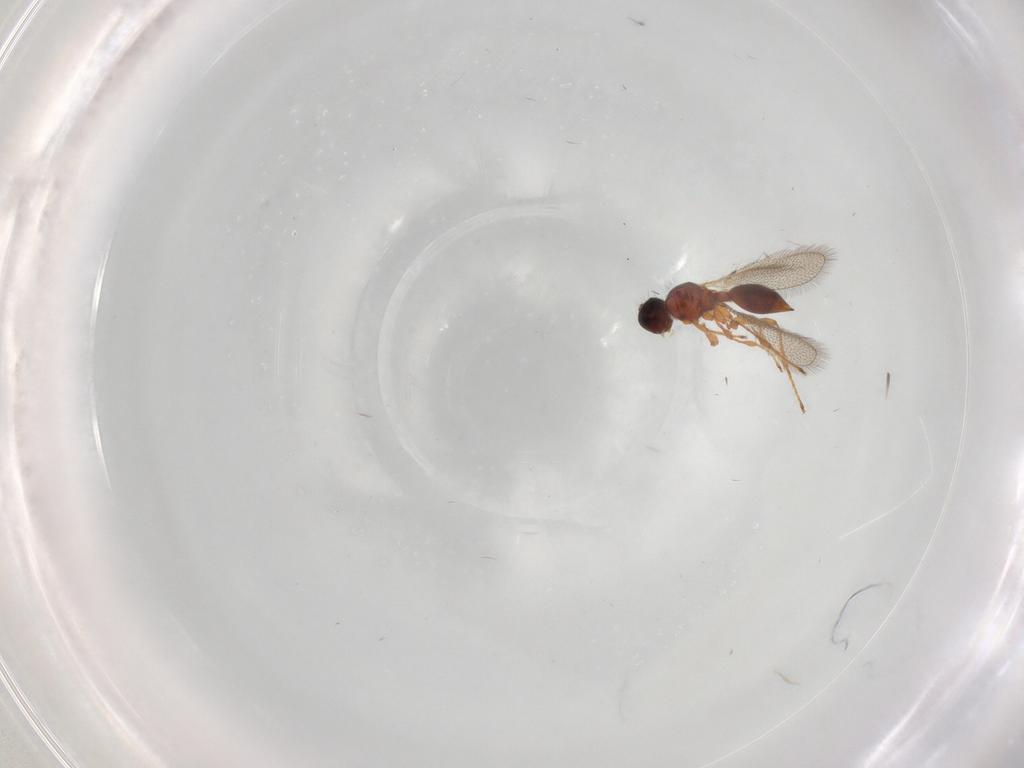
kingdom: Animalia
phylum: Arthropoda
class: Insecta
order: Hymenoptera
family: Diapriidae
